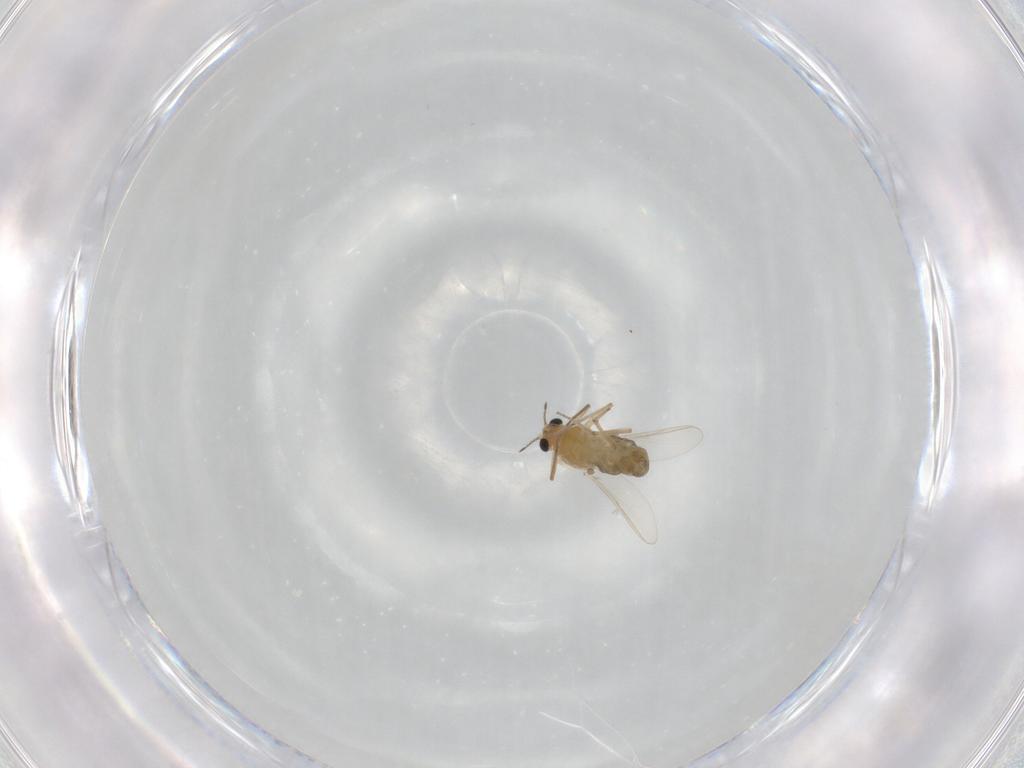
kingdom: Animalia
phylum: Arthropoda
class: Insecta
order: Diptera
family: Chironomidae
